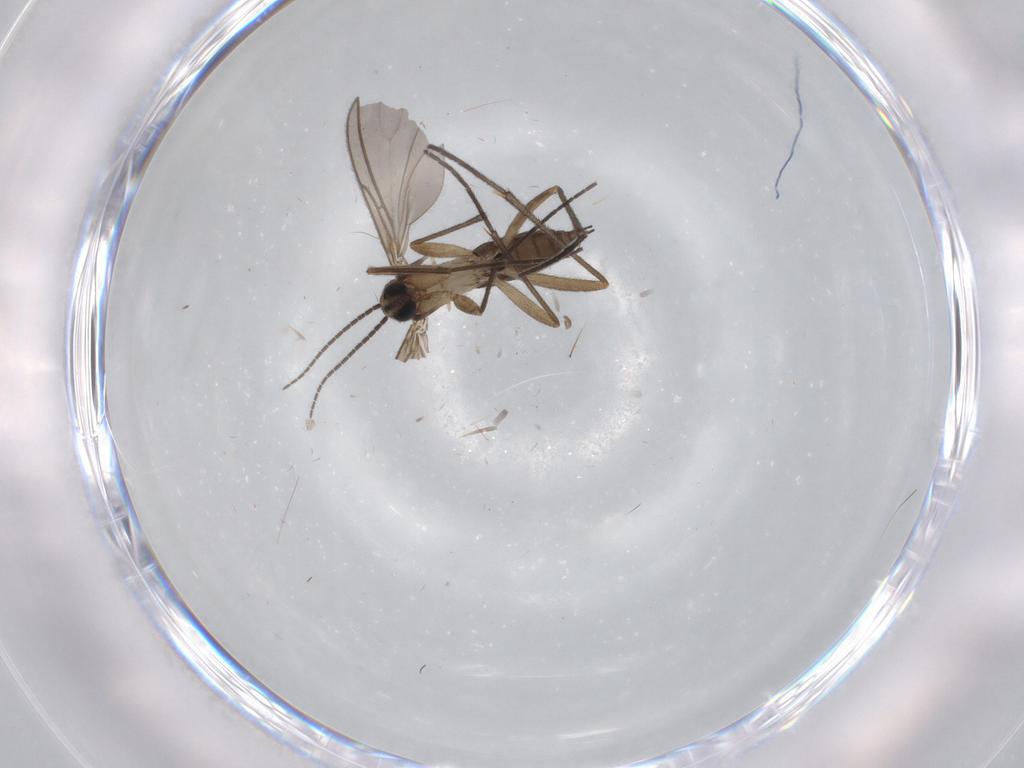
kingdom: Animalia
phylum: Arthropoda
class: Insecta
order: Diptera
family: Sciaridae
